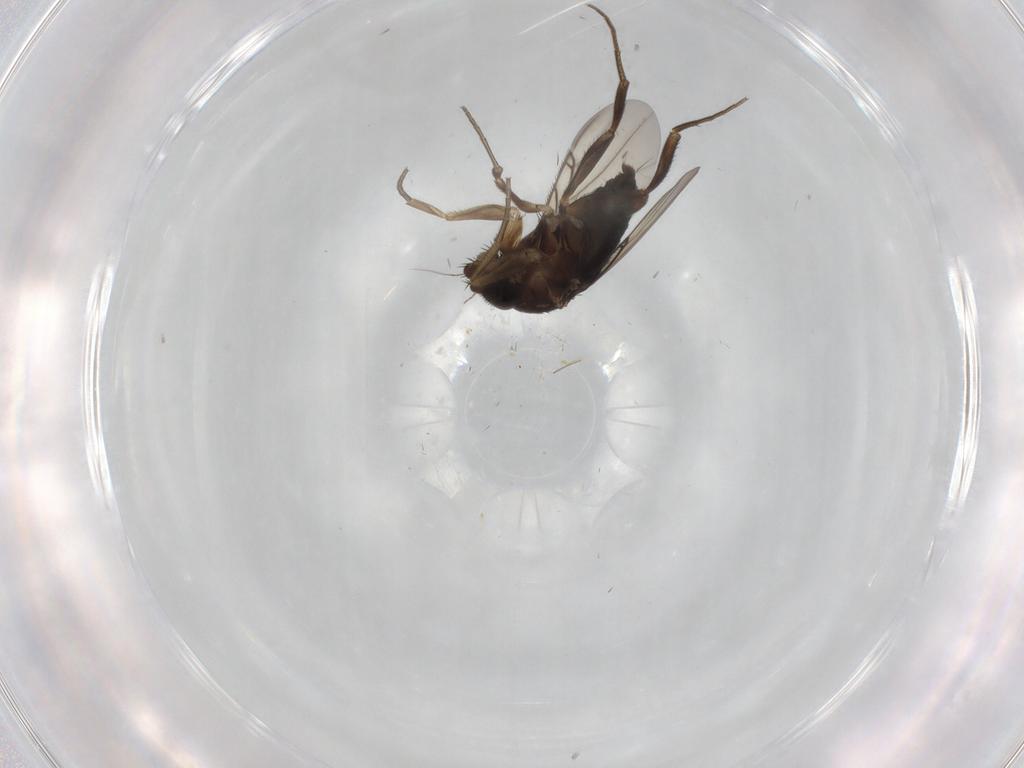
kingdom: Animalia
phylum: Arthropoda
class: Insecta
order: Diptera
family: Phoridae
